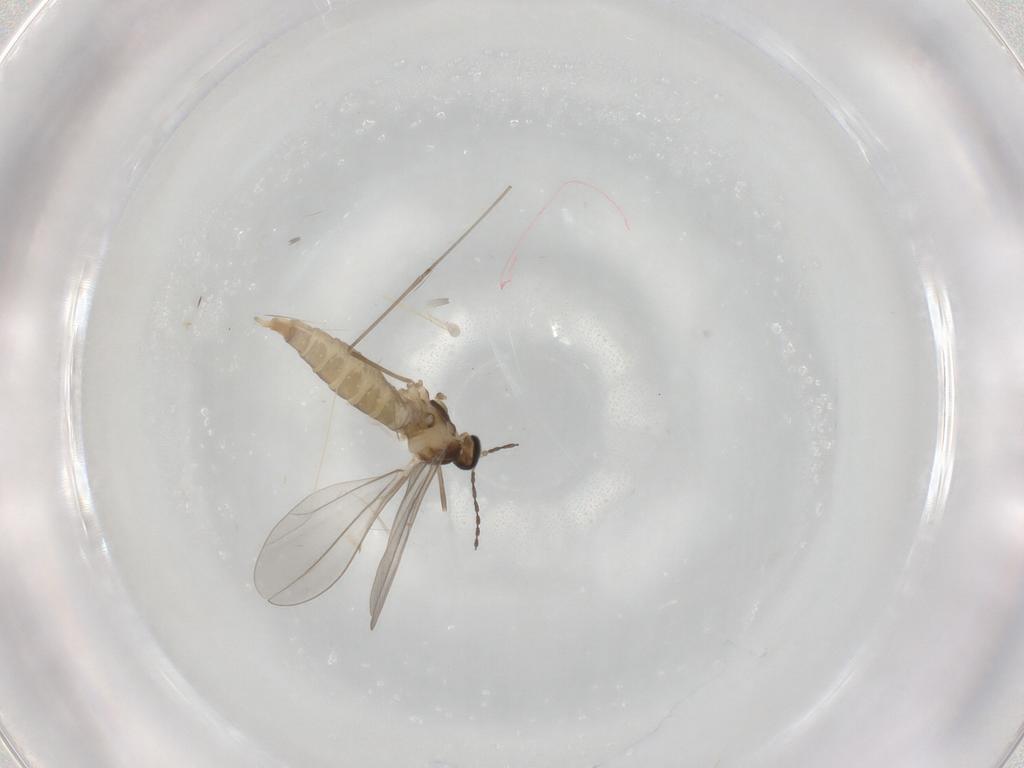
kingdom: Animalia
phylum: Arthropoda
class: Insecta
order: Diptera
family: Cecidomyiidae
